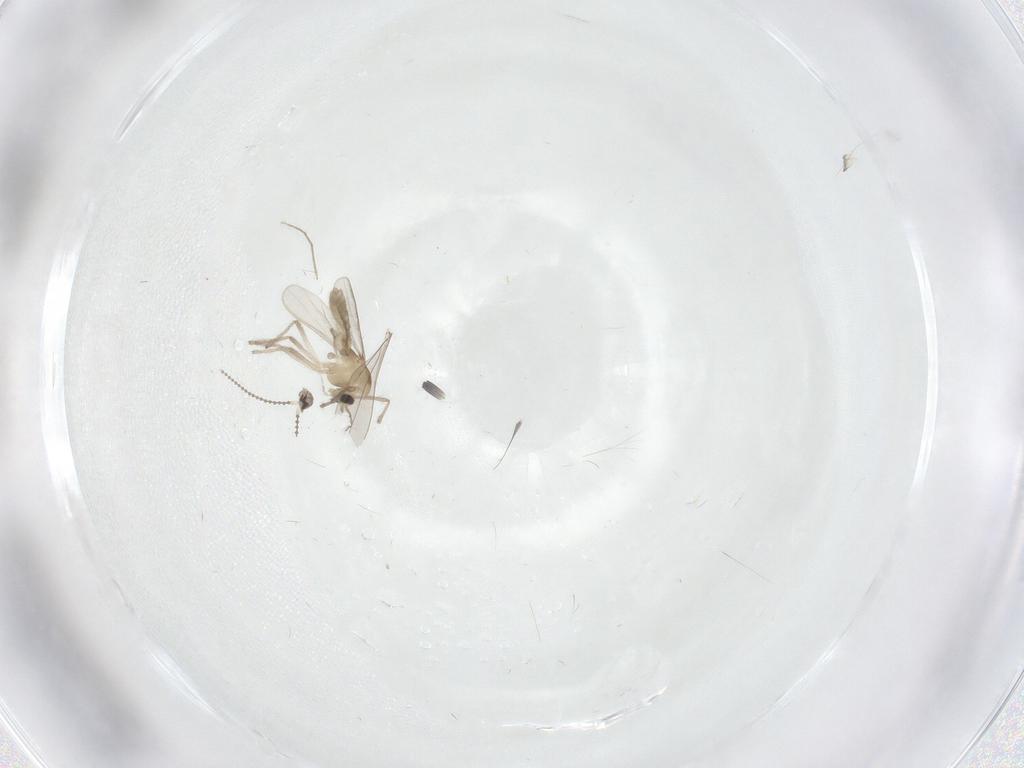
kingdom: Animalia
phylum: Arthropoda
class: Insecta
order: Diptera
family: Chironomidae
